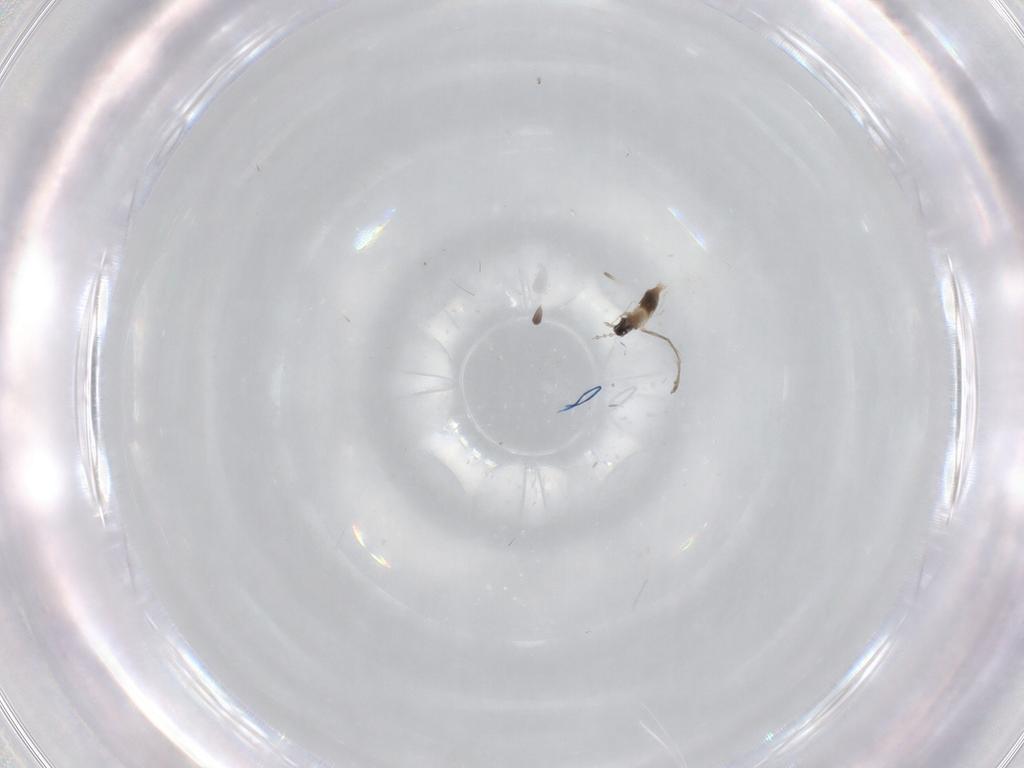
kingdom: Animalia
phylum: Arthropoda
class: Insecta
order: Diptera
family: Cecidomyiidae
